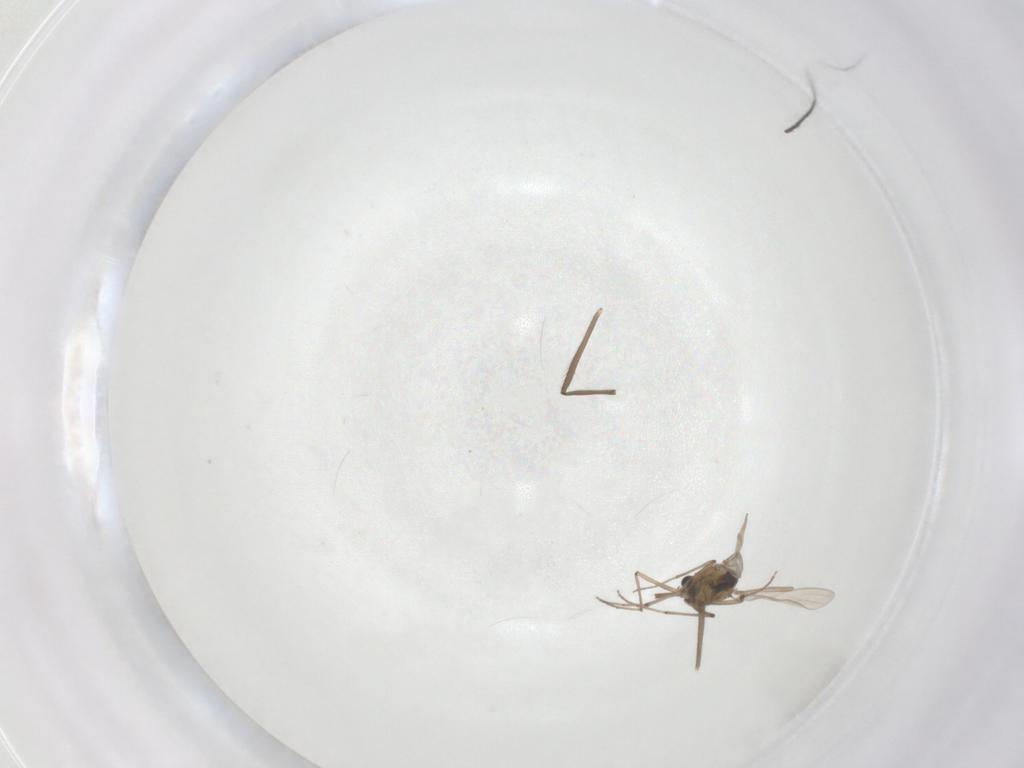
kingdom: Animalia
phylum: Arthropoda
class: Insecta
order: Diptera
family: Chironomidae
